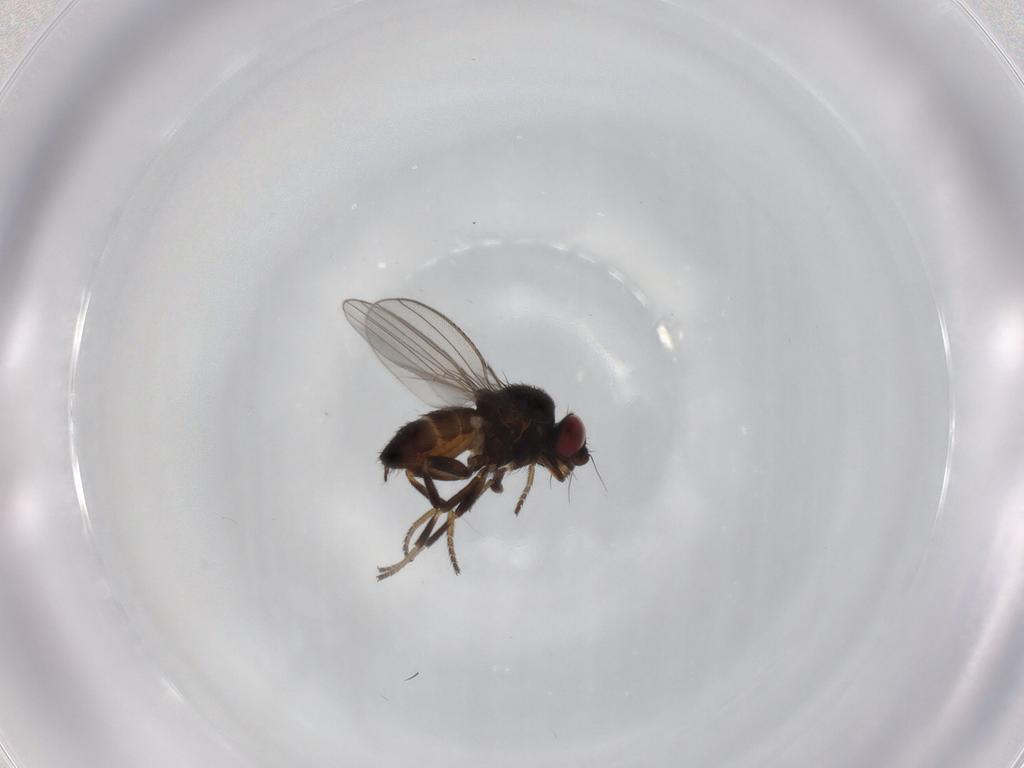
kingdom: Animalia
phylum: Arthropoda
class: Insecta
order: Diptera
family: Milichiidae
